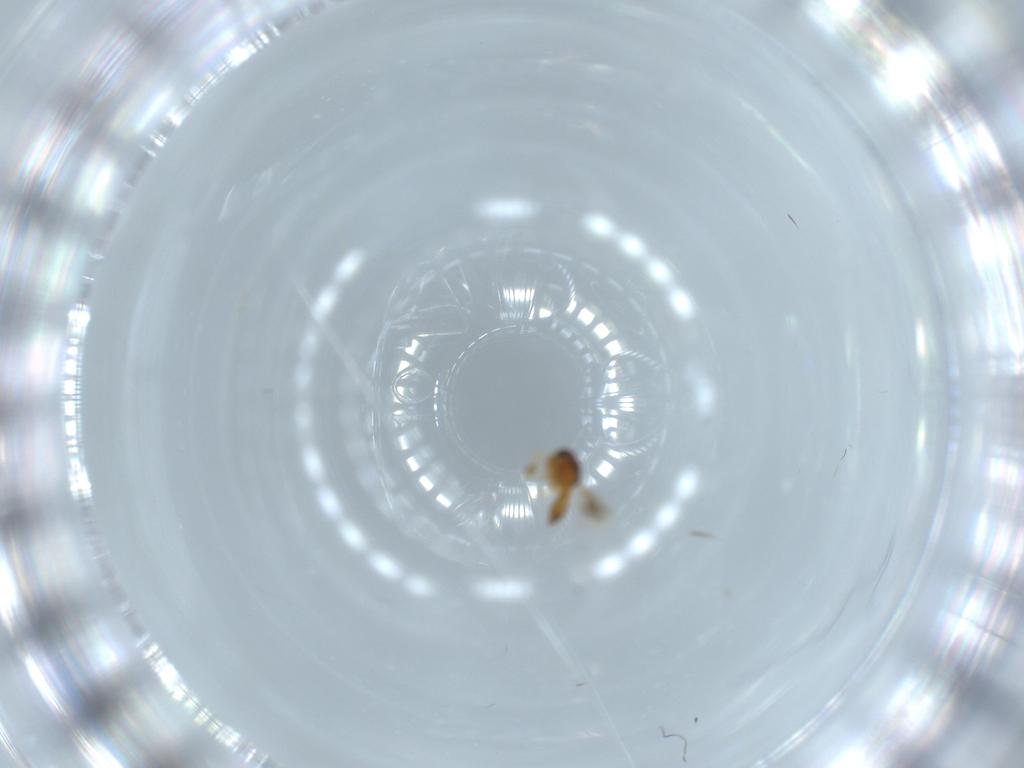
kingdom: Animalia
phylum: Arthropoda
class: Insecta
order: Hymenoptera
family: Scelionidae
